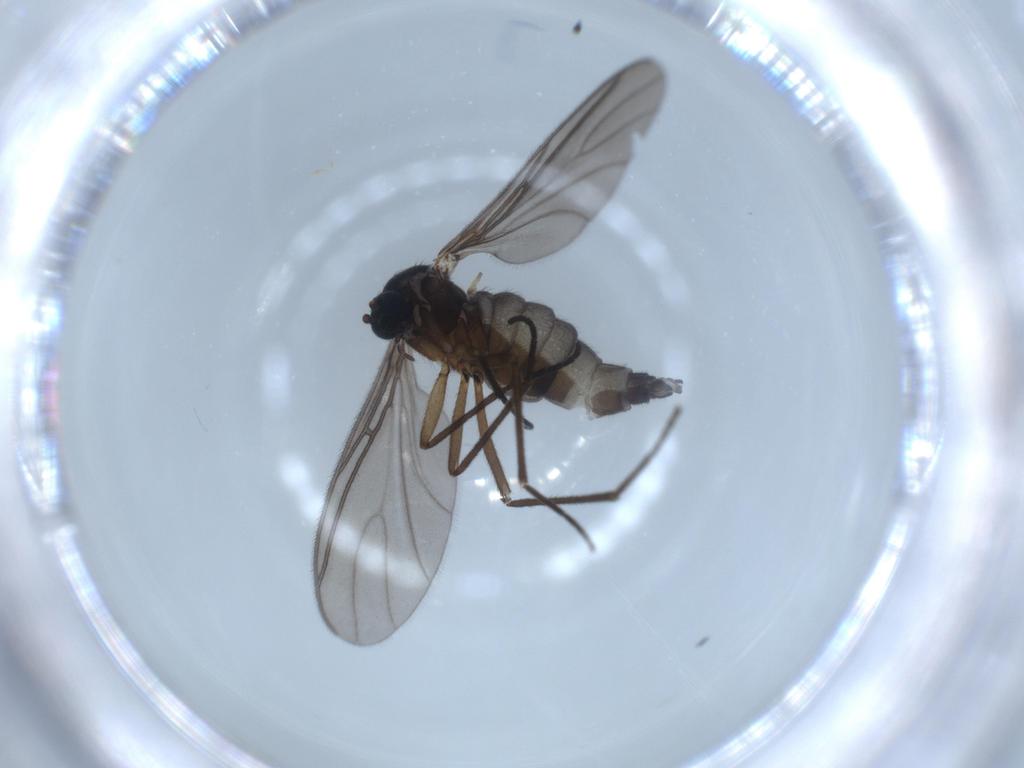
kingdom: Animalia
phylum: Arthropoda
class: Insecta
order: Diptera
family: Sciaridae
